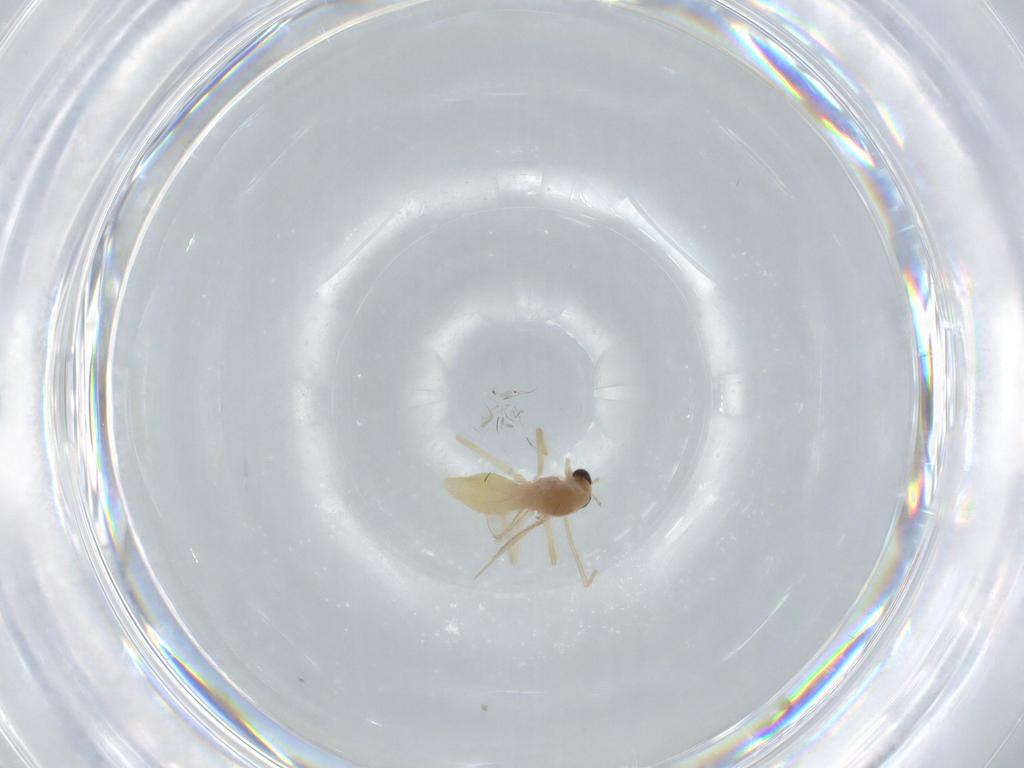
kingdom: Animalia
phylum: Arthropoda
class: Insecta
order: Diptera
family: Chironomidae
